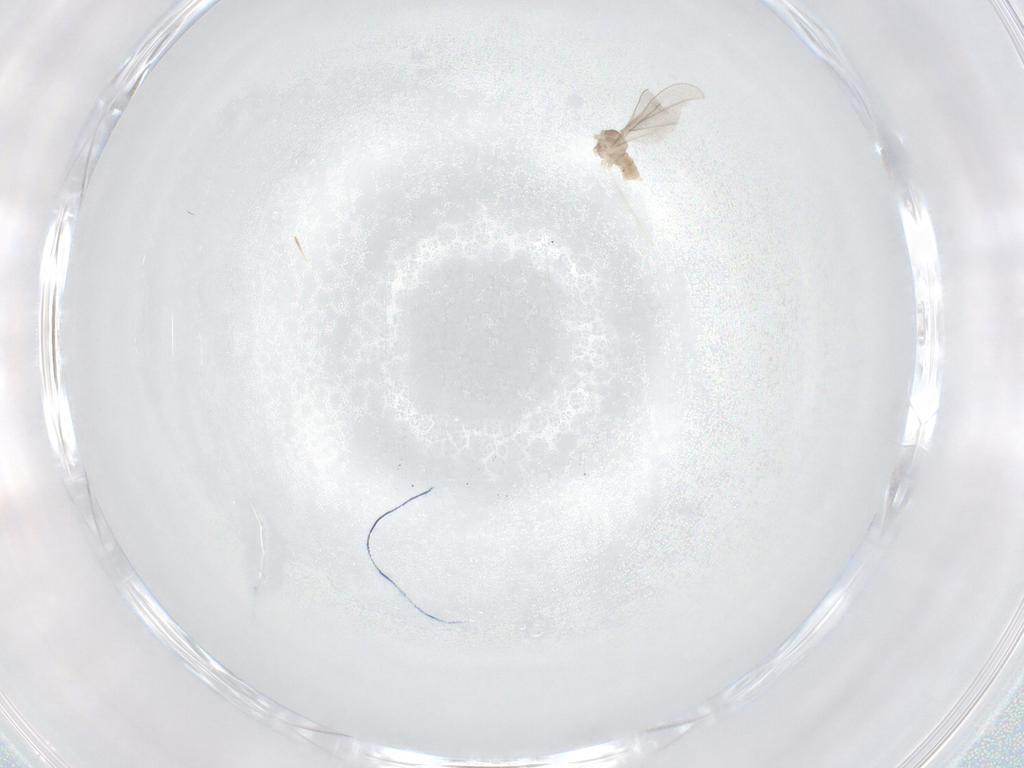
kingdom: Animalia
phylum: Arthropoda
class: Insecta
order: Diptera
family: Cecidomyiidae
